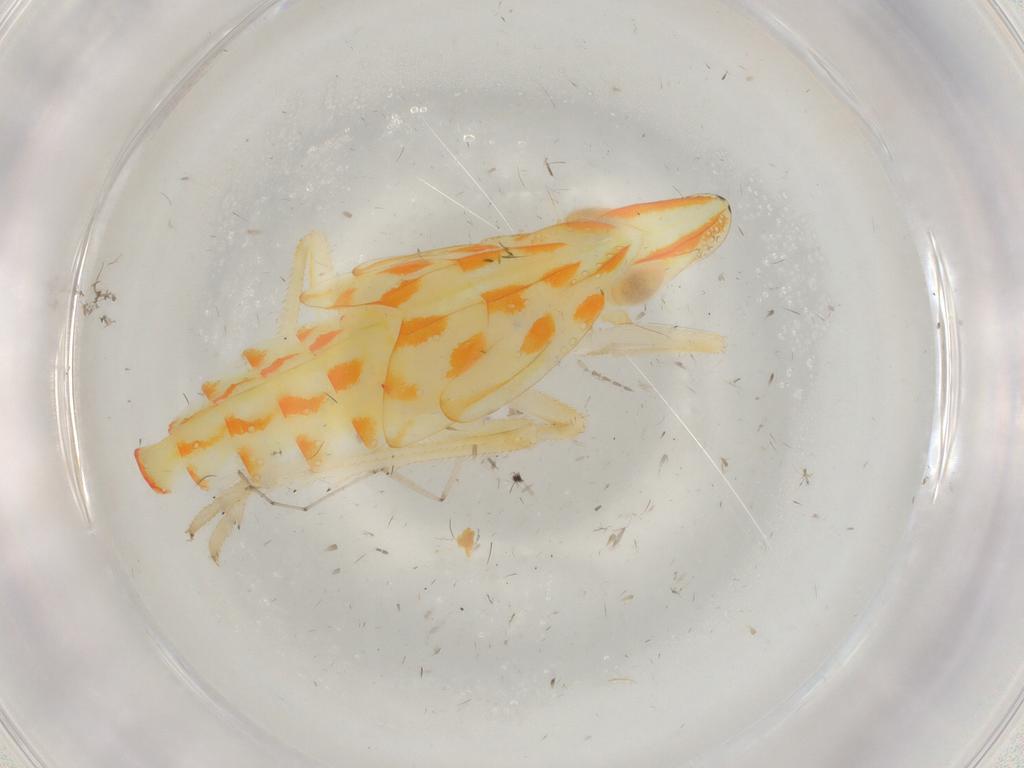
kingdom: Animalia
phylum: Arthropoda
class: Insecta
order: Hemiptera
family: Tropiduchidae
